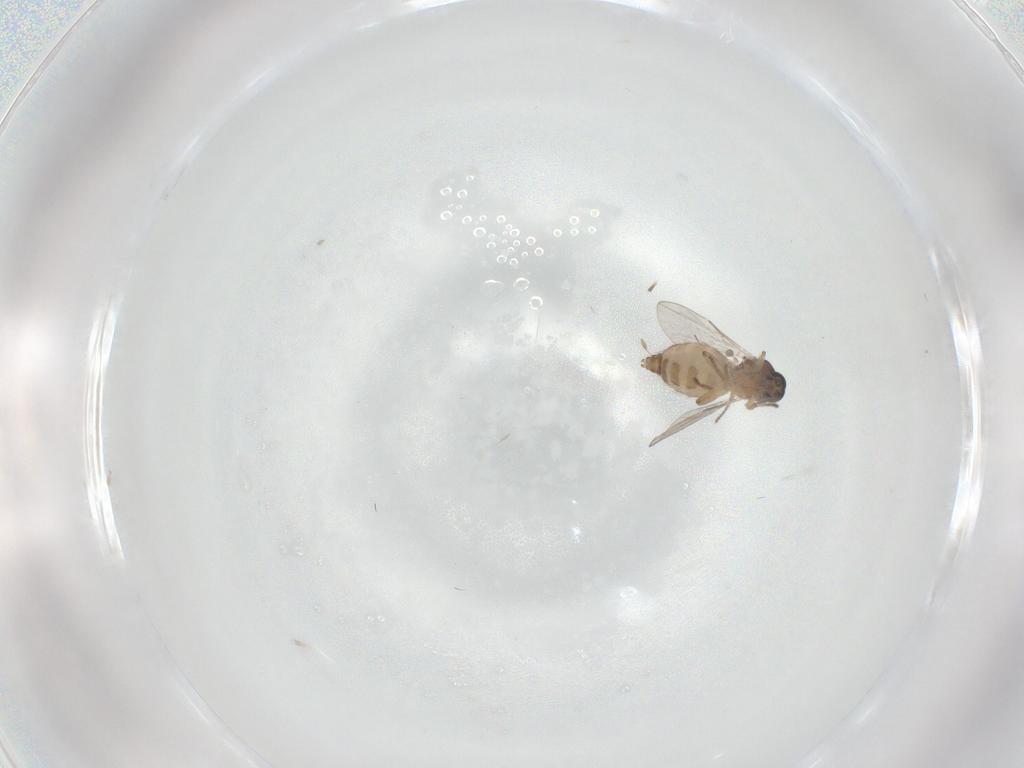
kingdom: Animalia
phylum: Arthropoda
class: Insecta
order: Diptera
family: Ceratopogonidae
